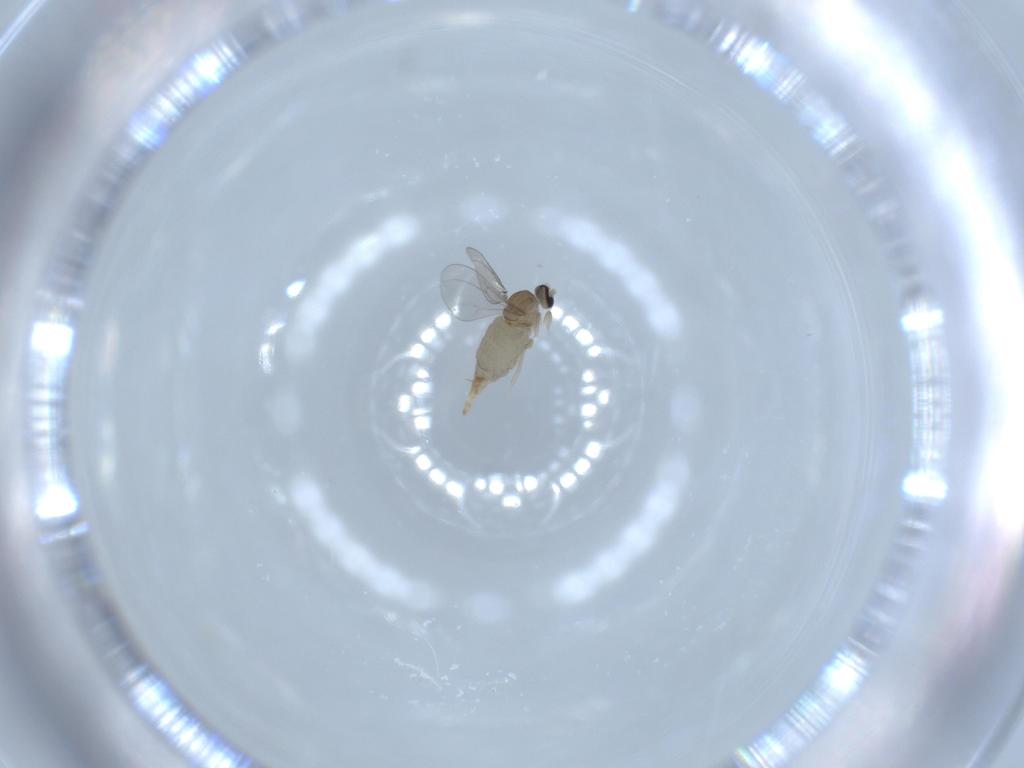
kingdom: Animalia
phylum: Arthropoda
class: Insecta
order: Diptera
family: Cecidomyiidae
